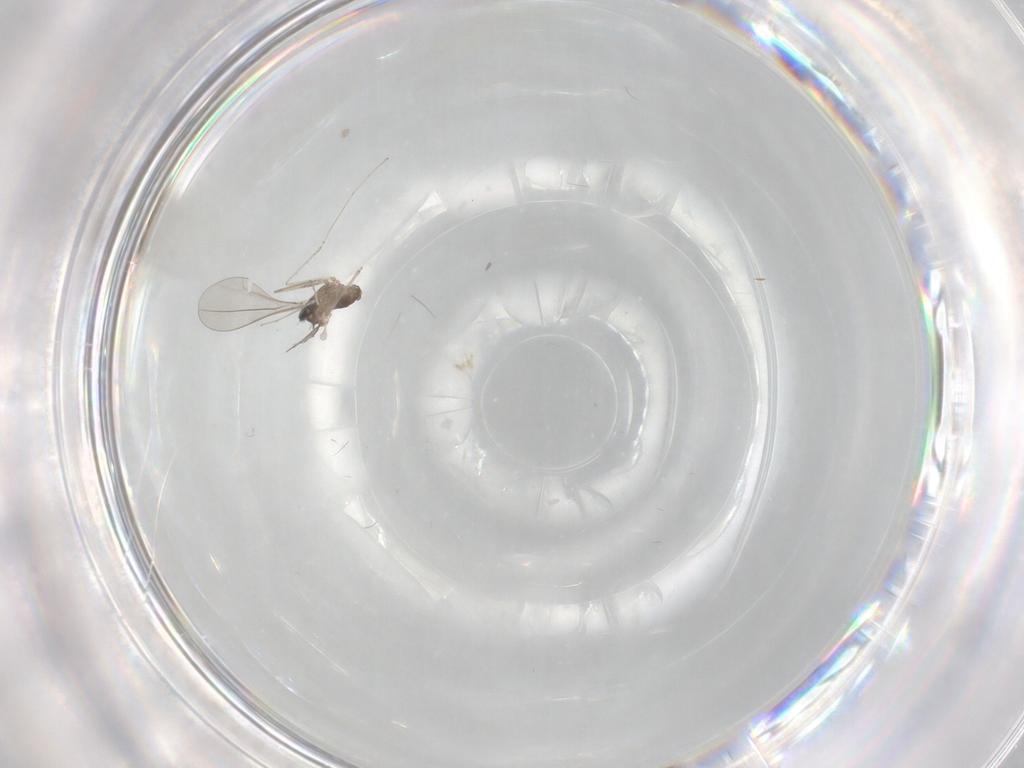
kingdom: Animalia
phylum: Arthropoda
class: Insecta
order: Diptera
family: Cecidomyiidae
